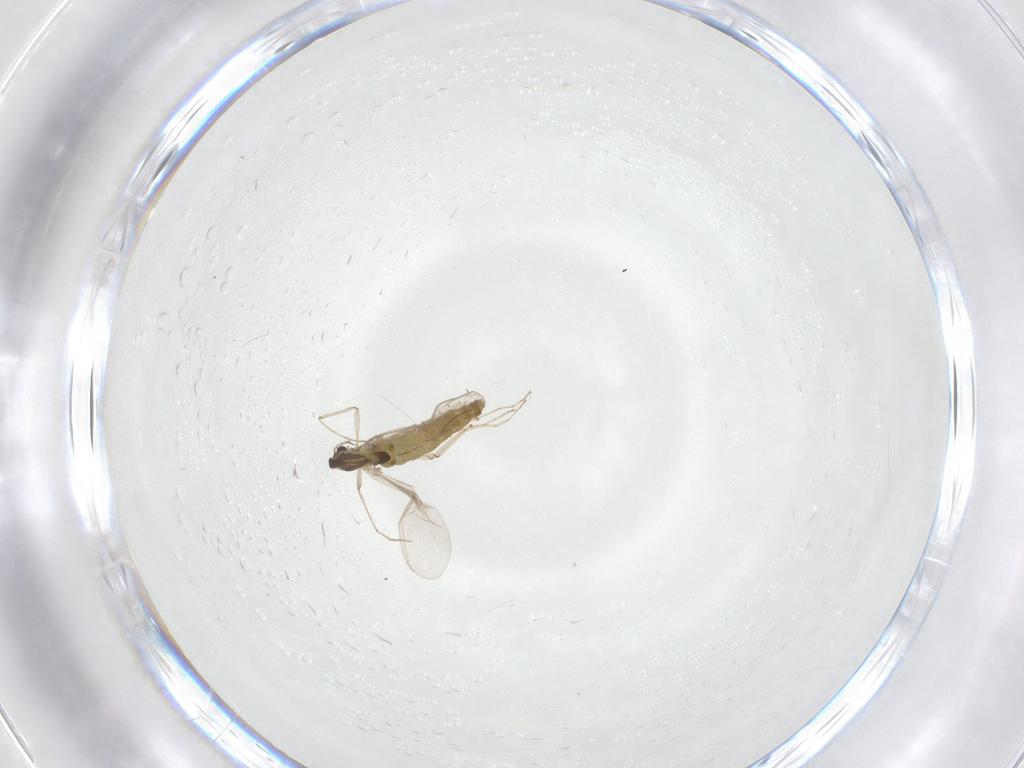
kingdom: Animalia
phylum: Arthropoda
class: Insecta
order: Diptera
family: Chironomidae
